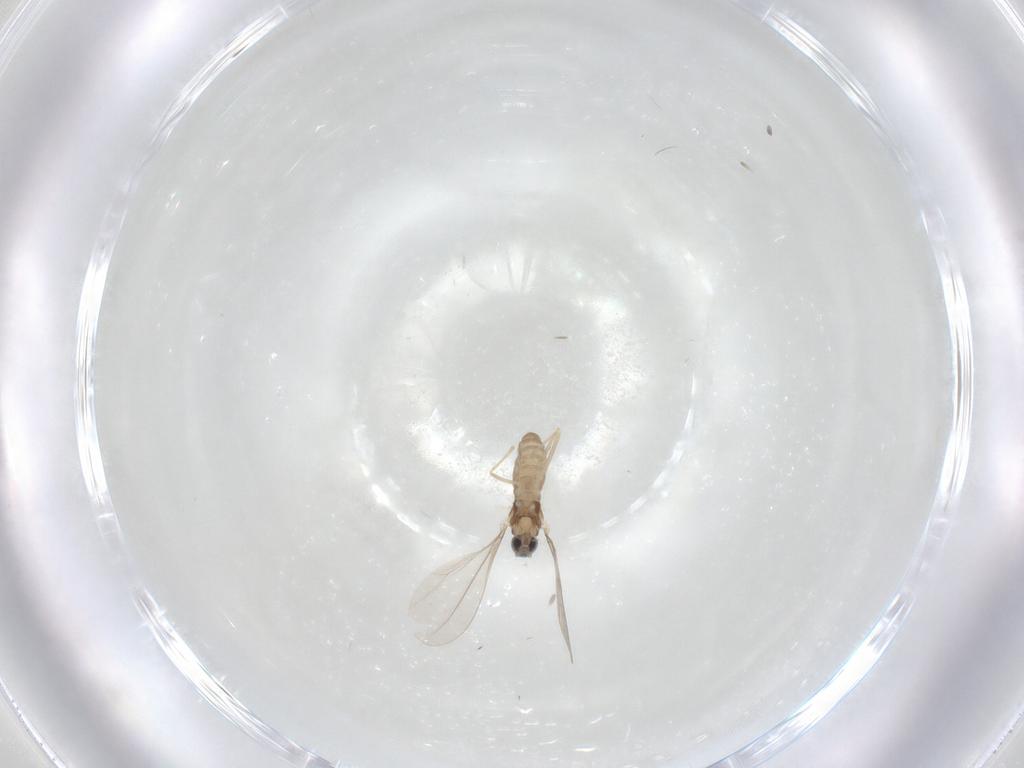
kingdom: Animalia
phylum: Arthropoda
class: Insecta
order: Diptera
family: Cecidomyiidae
